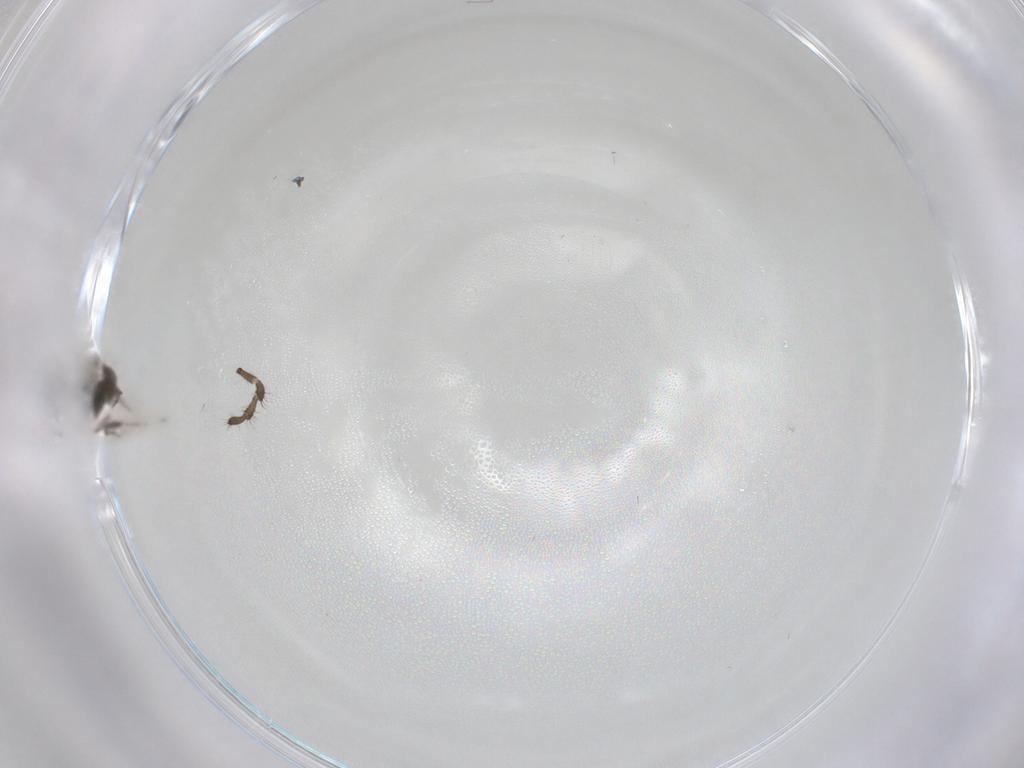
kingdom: Animalia
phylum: Arthropoda
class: Insecta
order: Hymenoptera
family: Platygastridae
